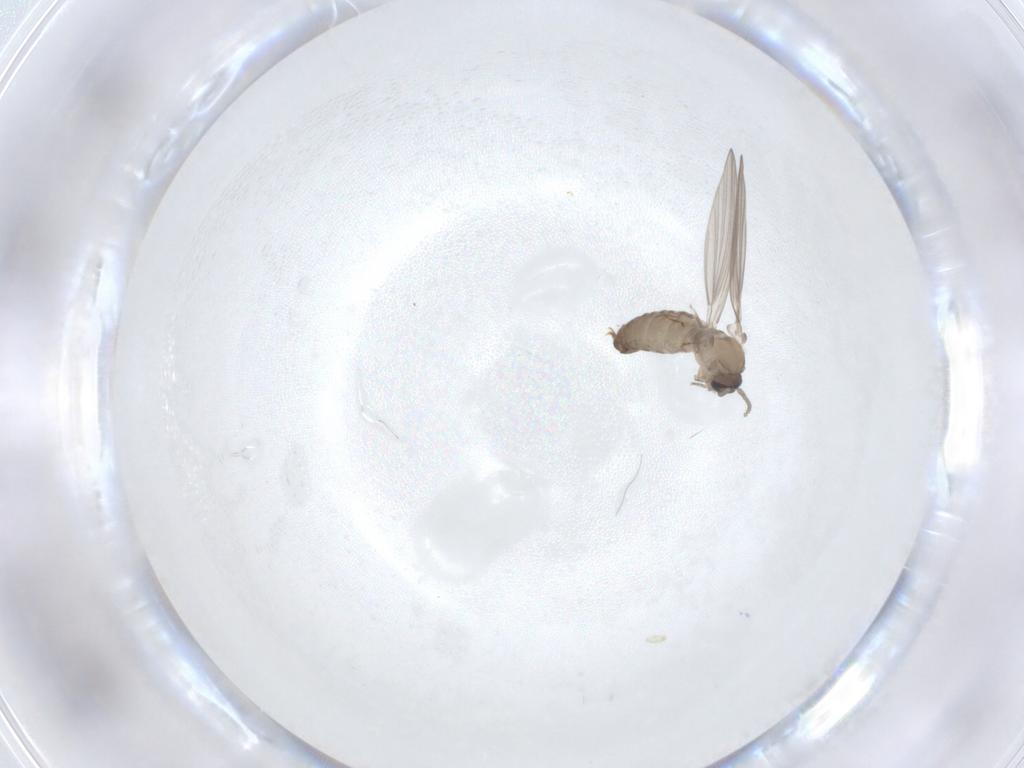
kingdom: Animalia
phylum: Arthropoda
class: Insecta
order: Diptera
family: Psychodidae
